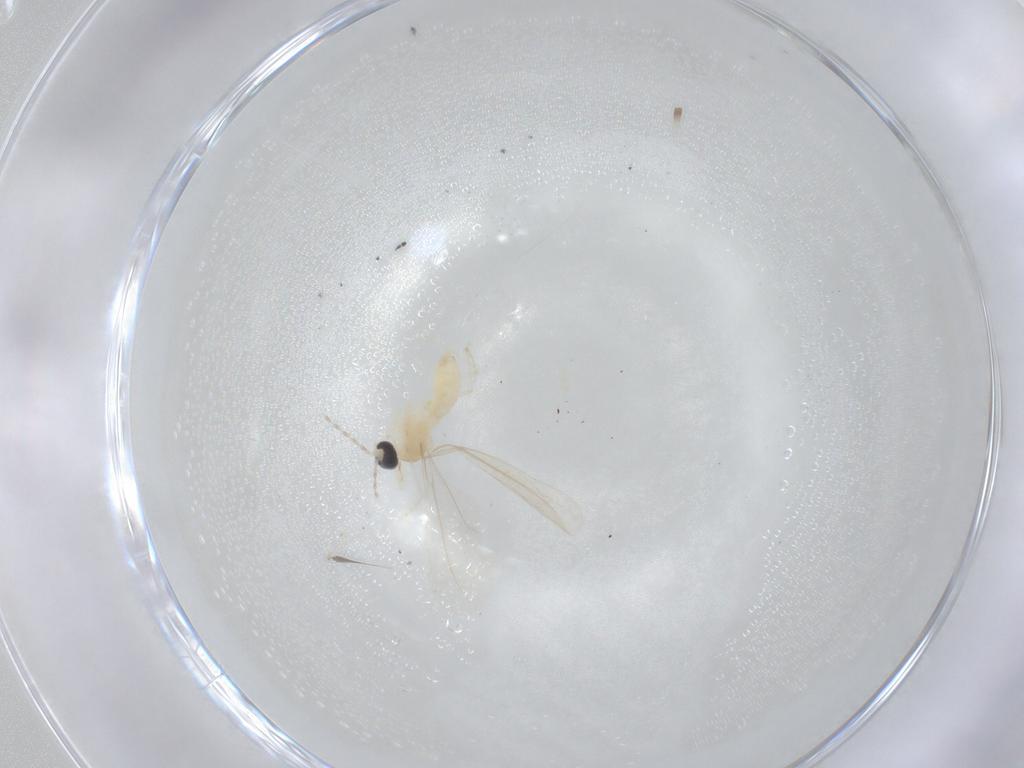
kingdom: Animalia
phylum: Arthropoda
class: Insecta
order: Diptera
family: Cecidomyiidae
